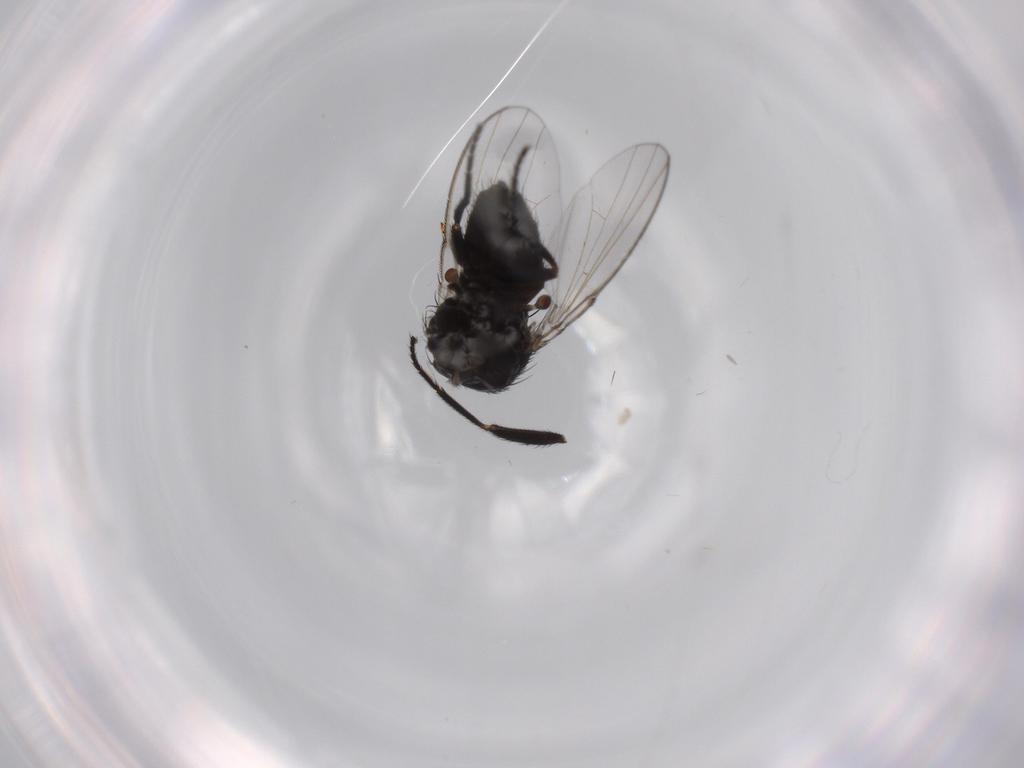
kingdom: Animalia
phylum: Arthropoda
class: Insecta
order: Diptera
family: Milichiidae
